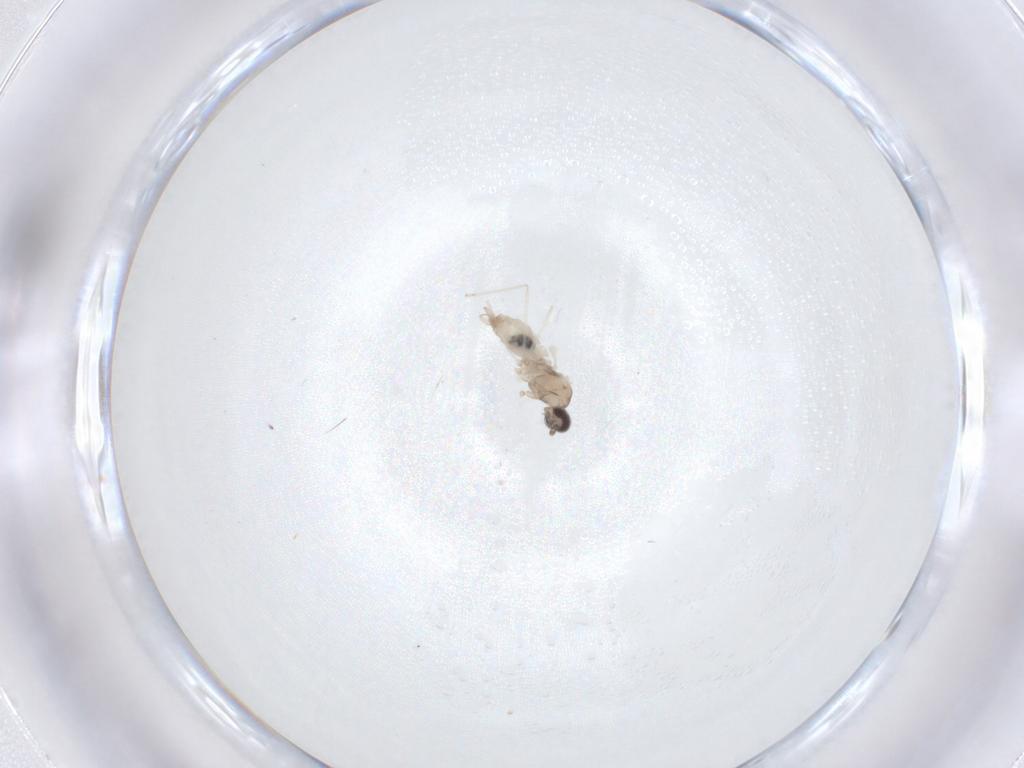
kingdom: Animalia
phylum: Arthropoda
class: Insecta
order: Diptera
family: Cecidomyiidae
